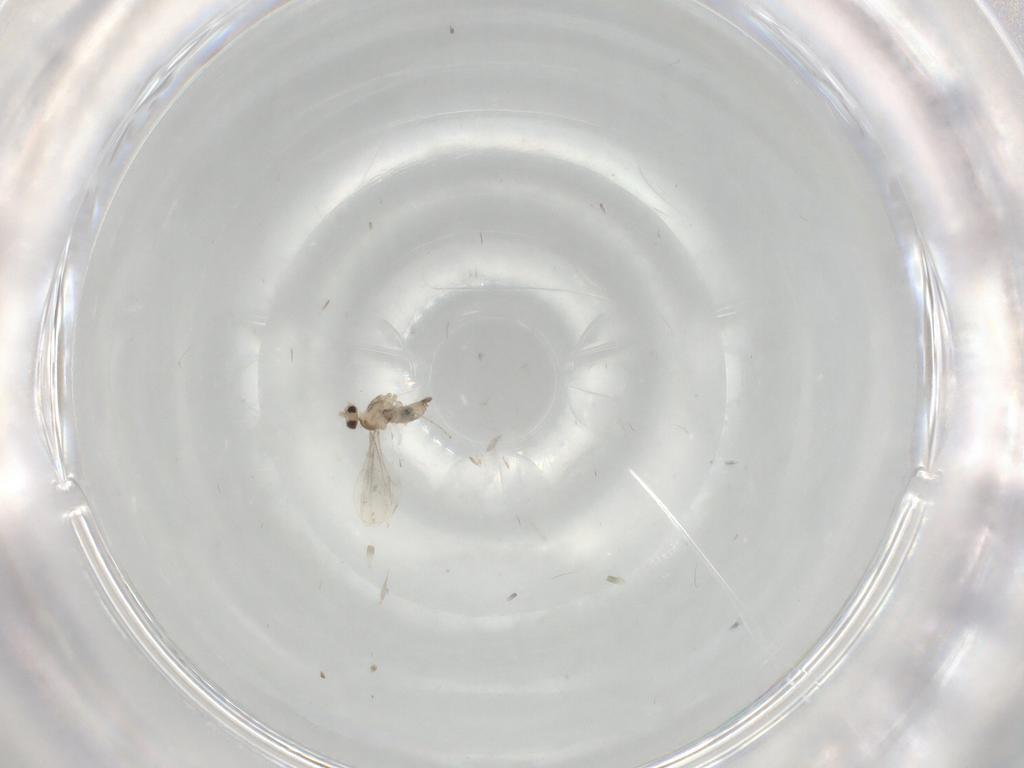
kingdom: Animalia
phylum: Arthropoda
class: Insecta
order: Diptera
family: Cecidomyiidae
